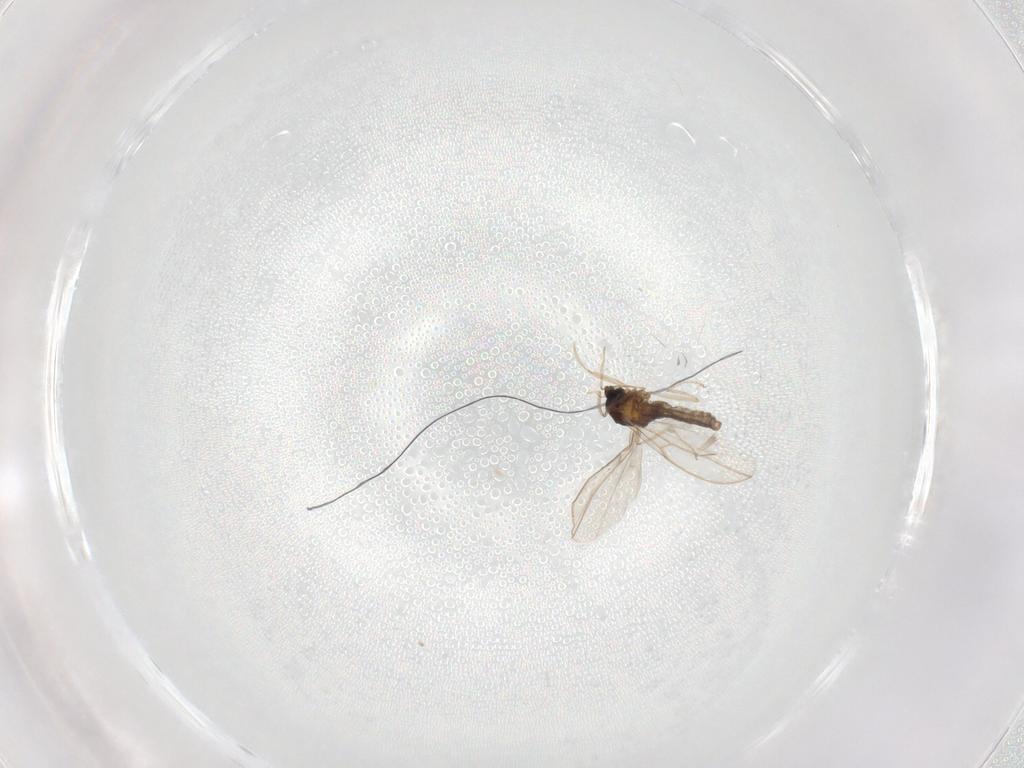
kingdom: Animalia
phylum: Arthropoda
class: Insecta
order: Diptera
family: Cecidomyiidae
